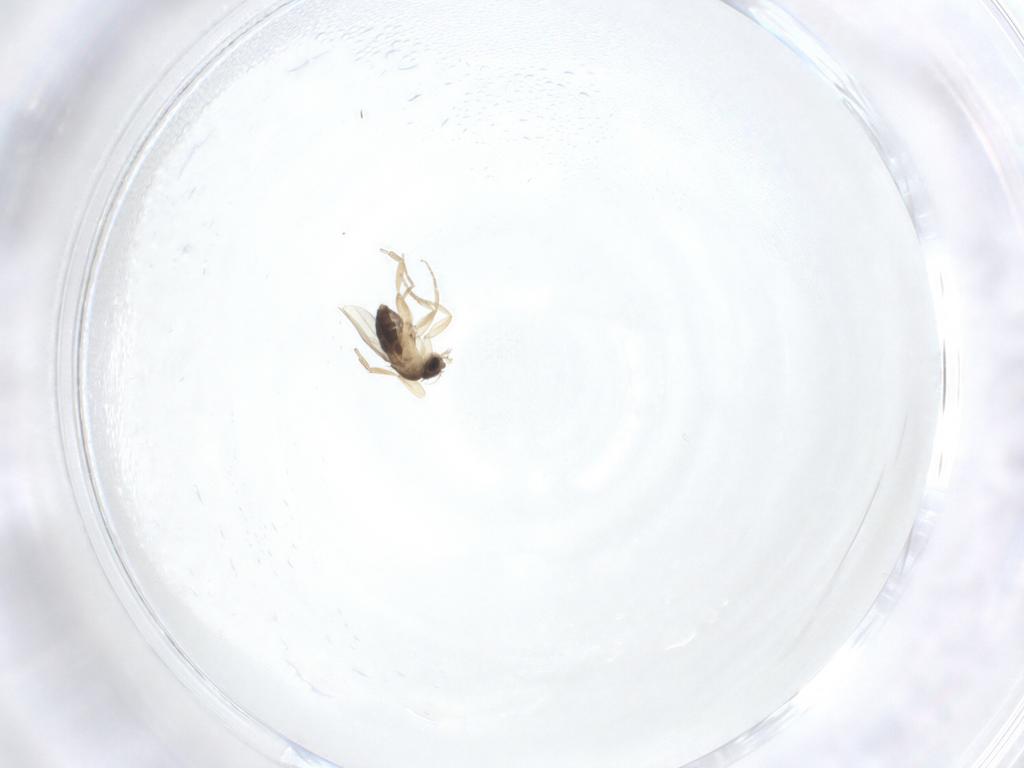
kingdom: Animalia
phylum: Arthropoda
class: Insecta
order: Diptera
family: Phoridae
